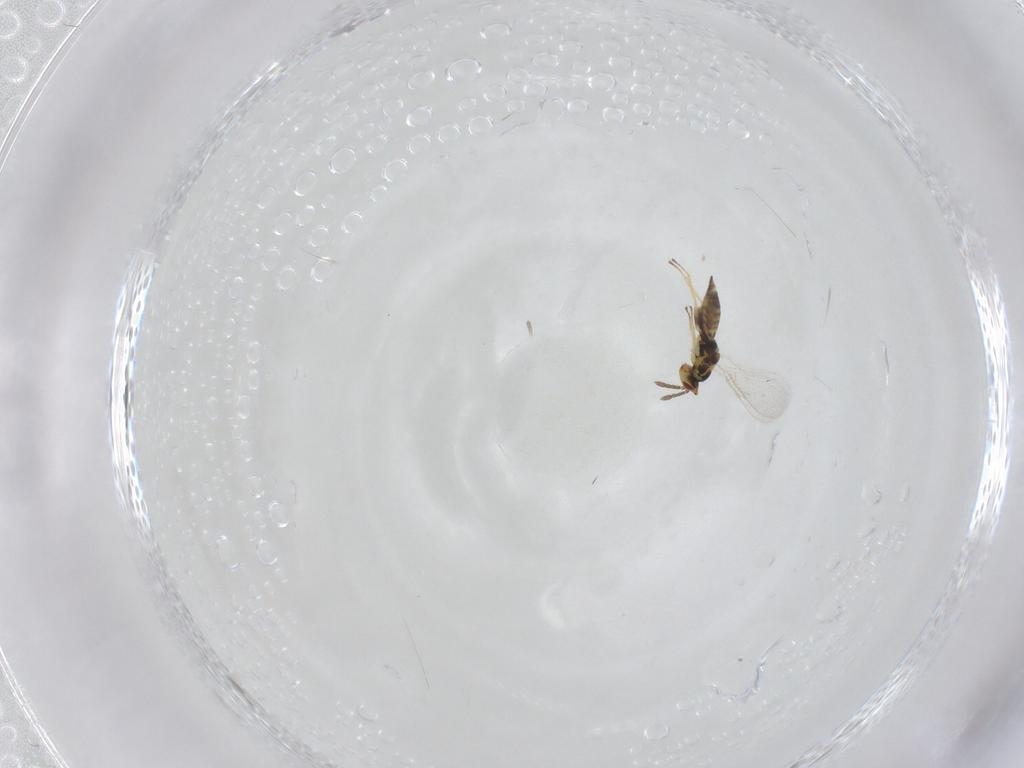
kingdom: Animalia
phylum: Arthropoda
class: Insecta
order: Hymenoptera
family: Eulophidae
